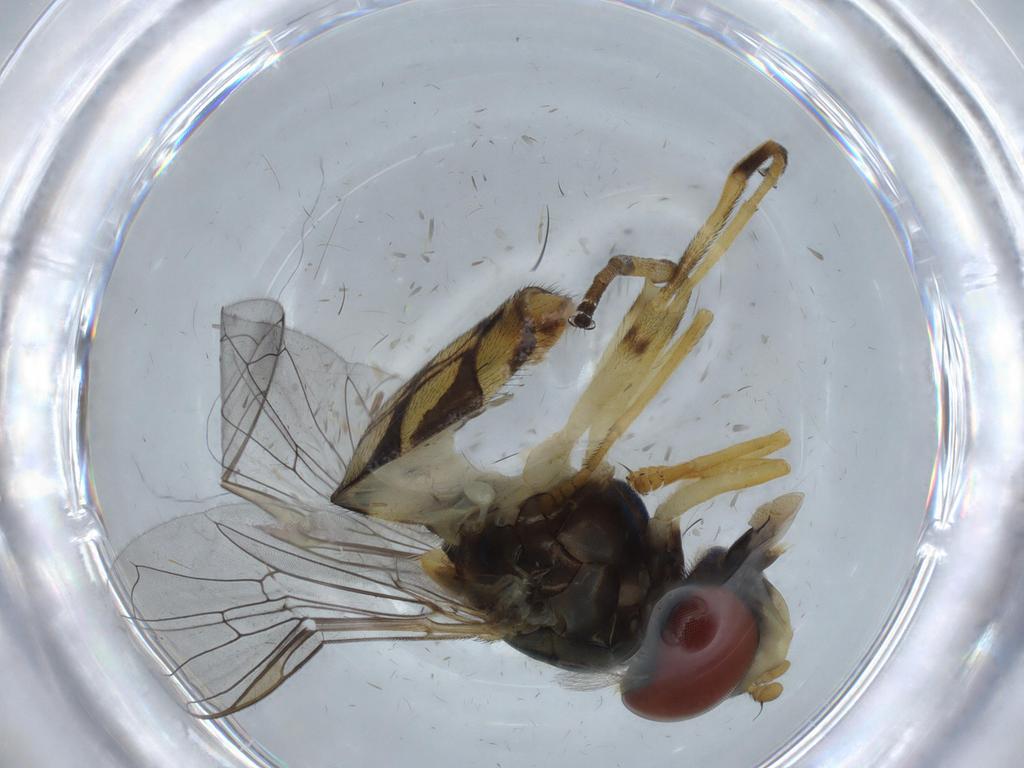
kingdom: Animalia
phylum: Arthropoda
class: Insecta
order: Diptera
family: Syrphidae
